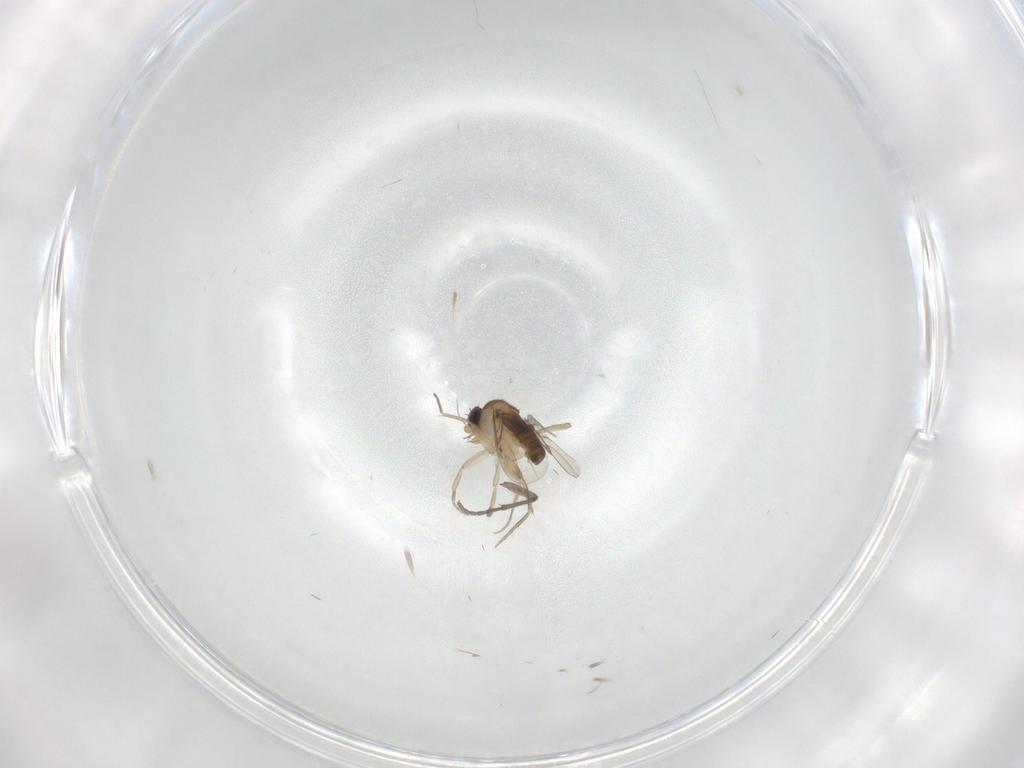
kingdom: Animalia
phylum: Arthropoda
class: Insecta
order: Diptera
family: Sciaridae
